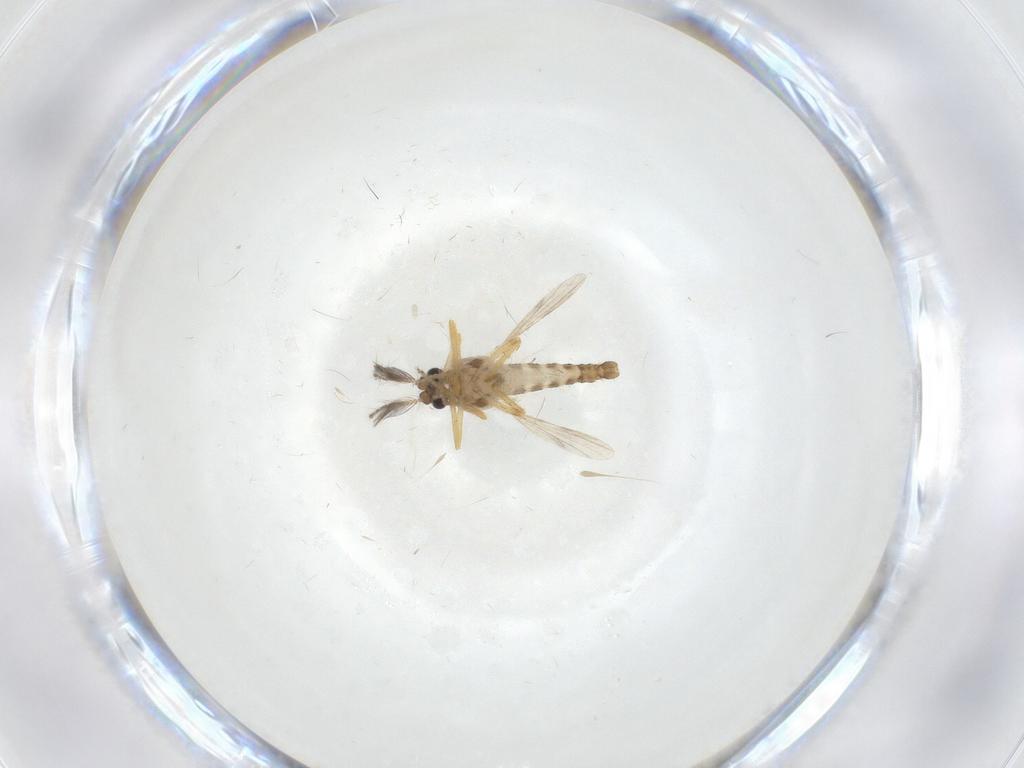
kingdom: Animalia
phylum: Arthropoda
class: Insecta
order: Diptera
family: Ceratopogonidae
